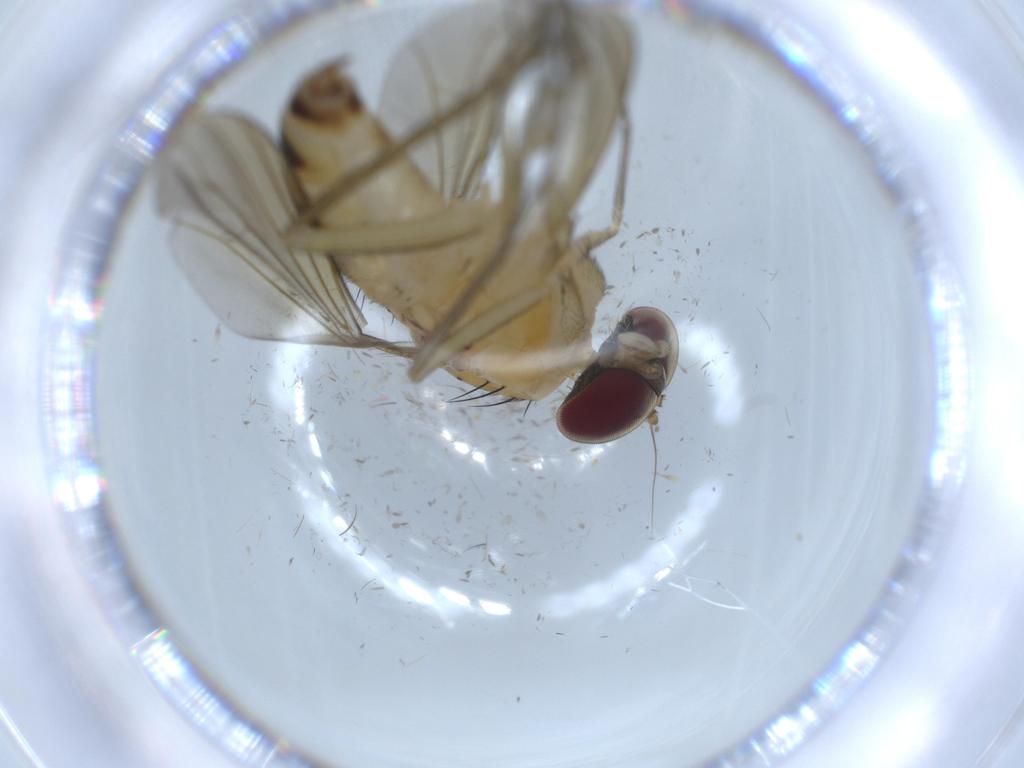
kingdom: Animalia
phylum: Arthropoda
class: Insecta
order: Diptera
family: Dolichopodidae
